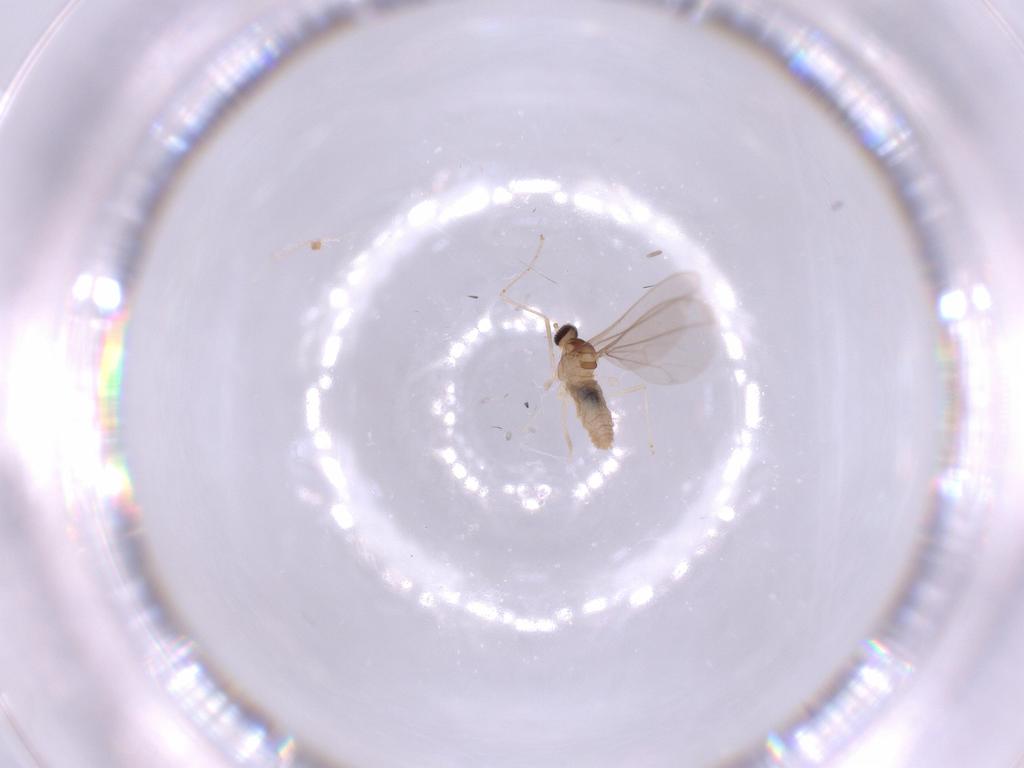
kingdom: Animalia
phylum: Arthropoda
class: Insecta
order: Diptera
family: Cecidomyiidae
